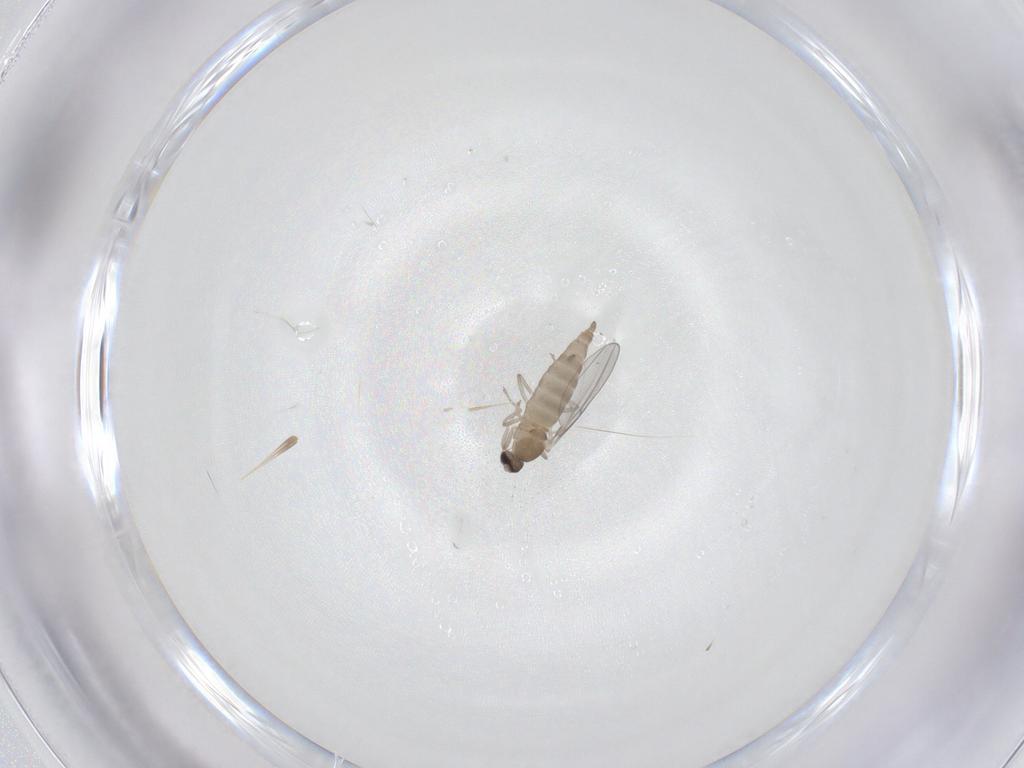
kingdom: Animalia
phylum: Arthropoda
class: Insecta
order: Diptera
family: Cecidomyiidae
